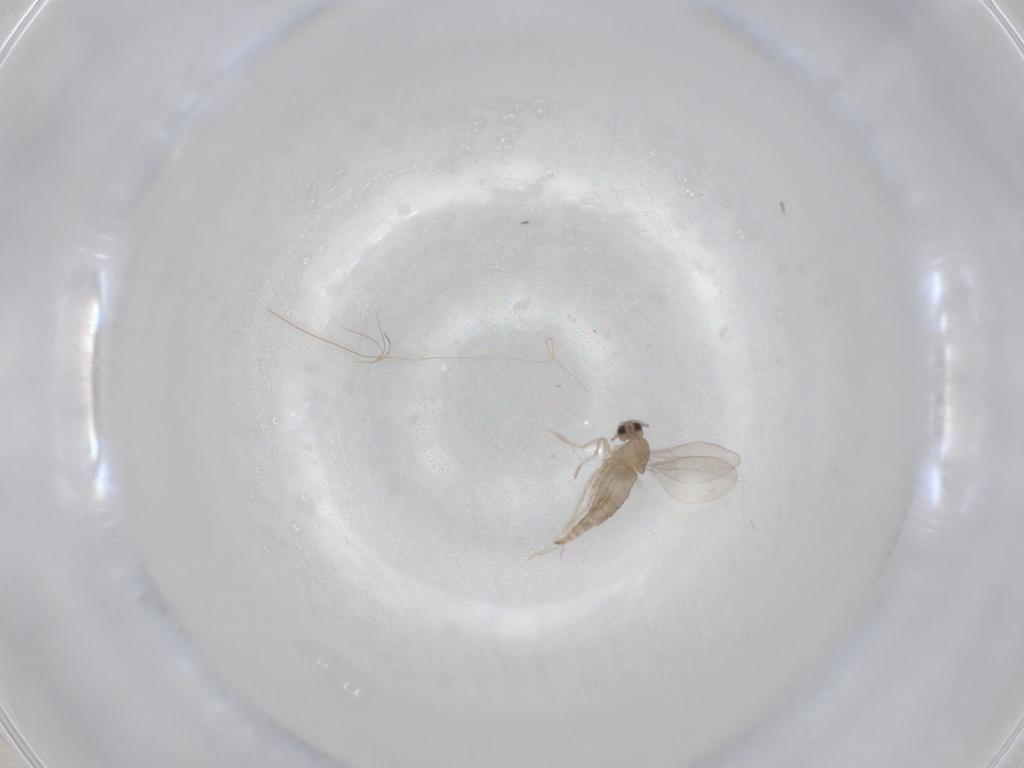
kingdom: Animalia
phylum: Arthropoda
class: Insecta
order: Diptera
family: Cecidomyiidae
